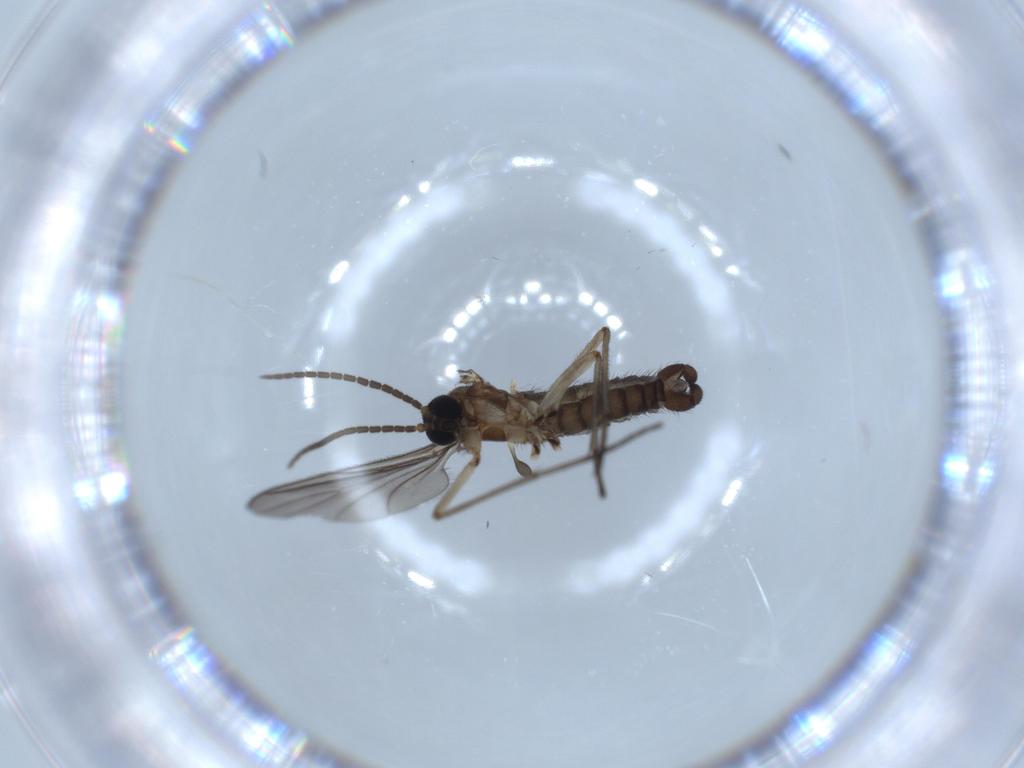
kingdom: Animalia
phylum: Arthropoda
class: Insecta
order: Diptera
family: Sciaridae
